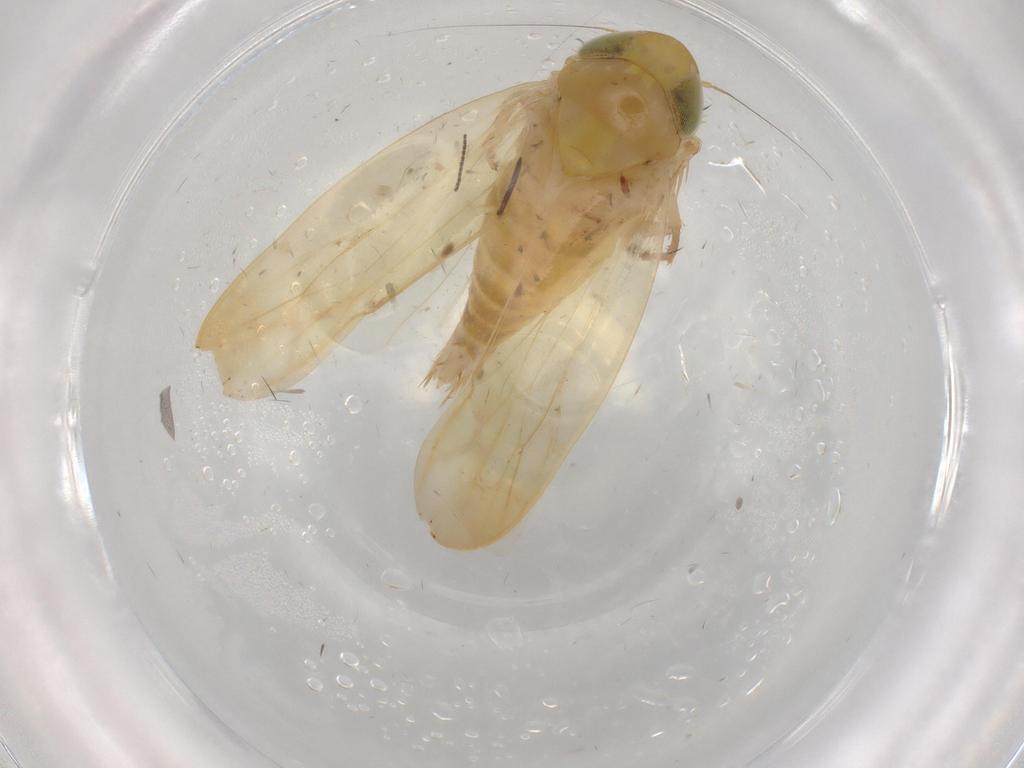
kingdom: Animalia
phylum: Arthropoda
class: Insecta
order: Hemiptera
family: Cicadellidae
